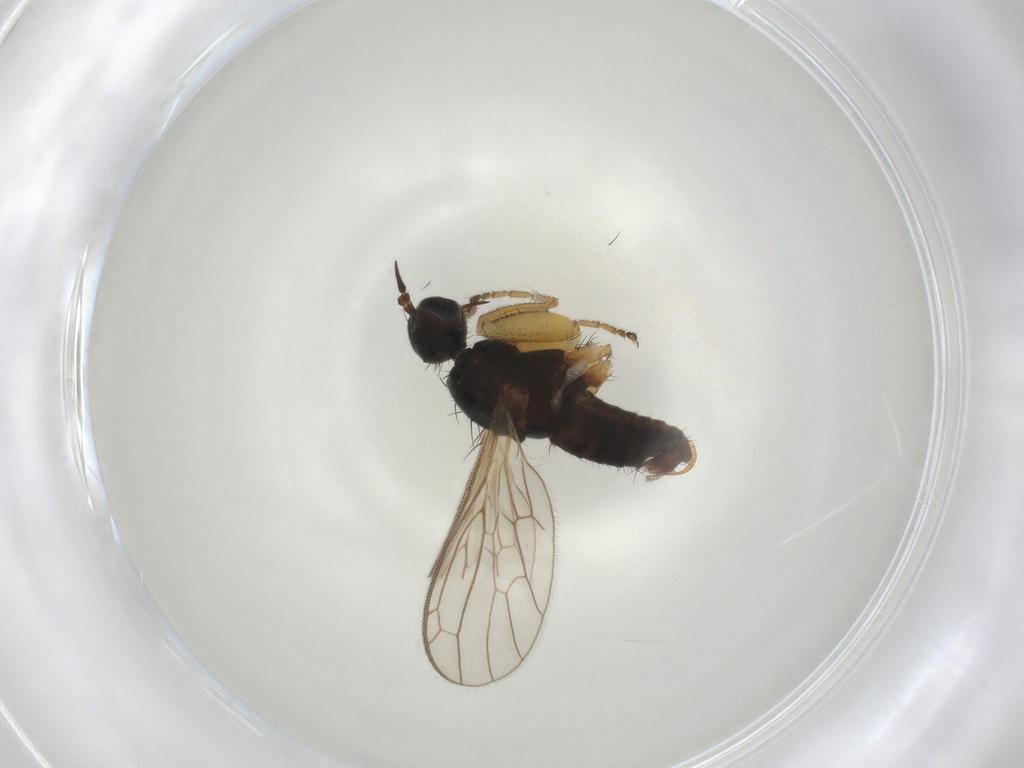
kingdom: Animalia
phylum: Arthropoda
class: Insecta
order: Diptera
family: Empididae
